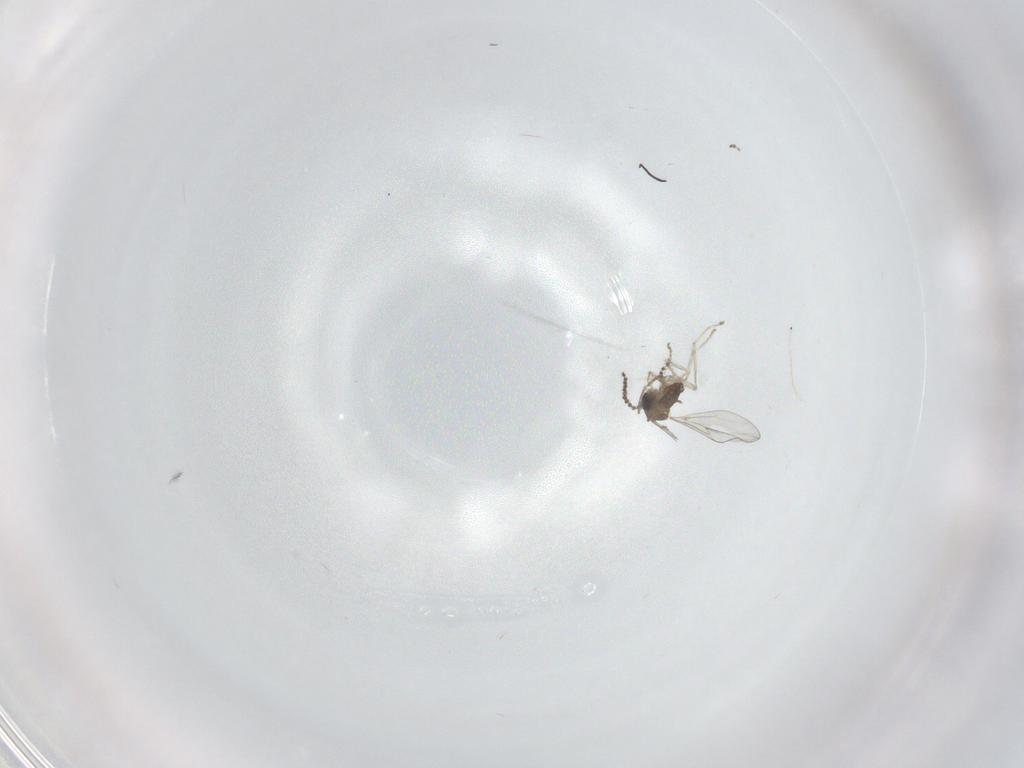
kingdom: Animalia
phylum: Arthropoda
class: Insecta
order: Diptera
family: Cecidomyiidae
